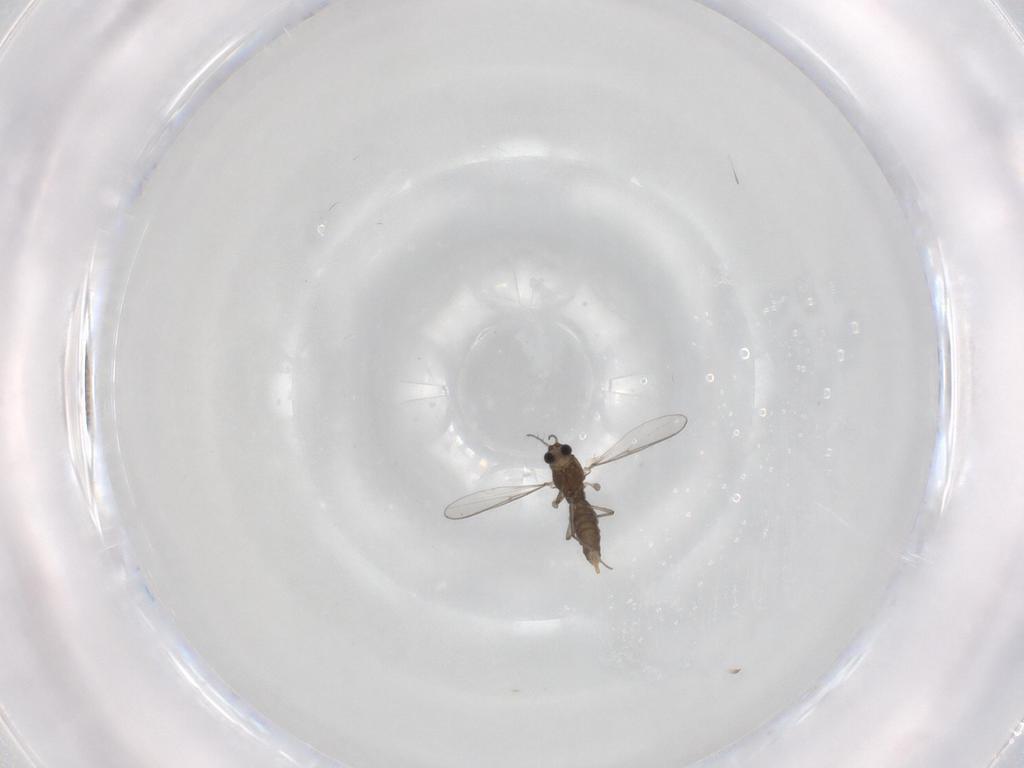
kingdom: Animalia
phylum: Arthropoda
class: Insecta
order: Diptera
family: Chironomidae
